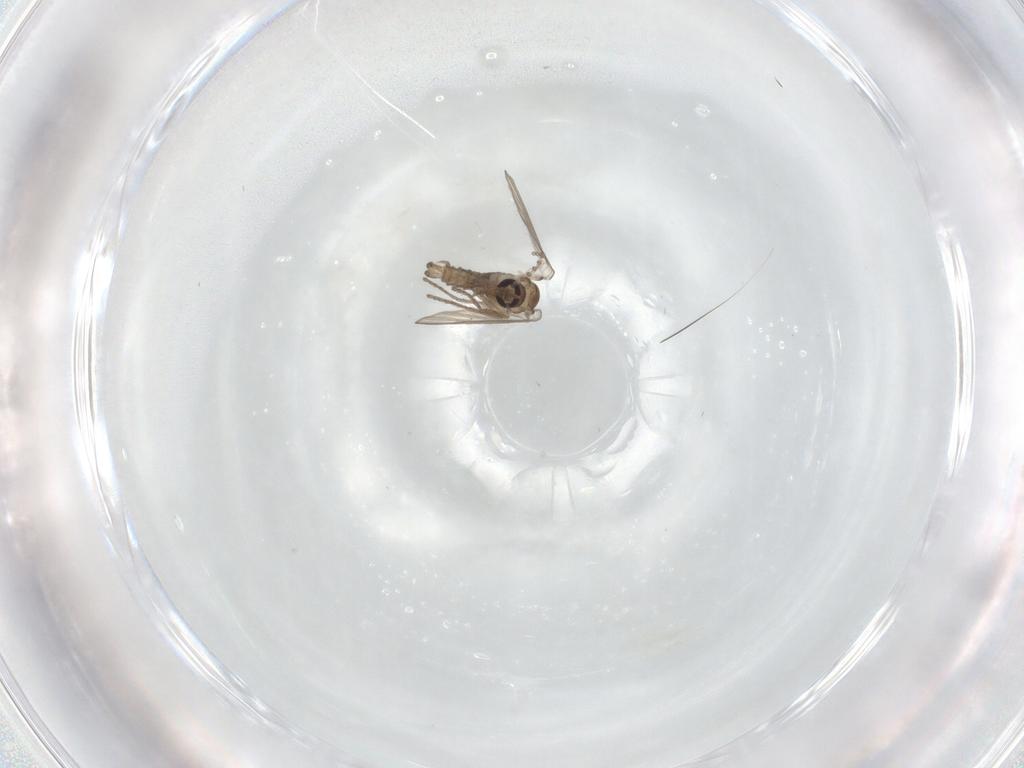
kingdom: Animalia
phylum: Arthropoda
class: Insecta
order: Diptera
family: Psychodidae
